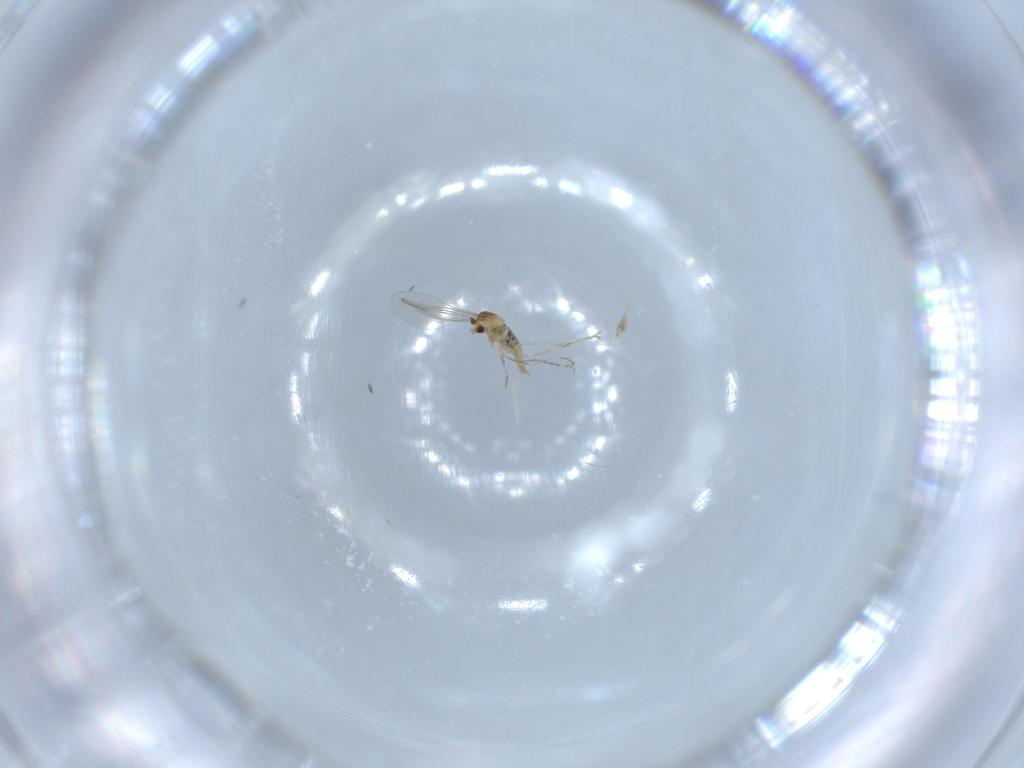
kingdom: Animalia
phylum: Arthropoda
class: Insecta
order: Diptera
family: Cecidomyiidae
